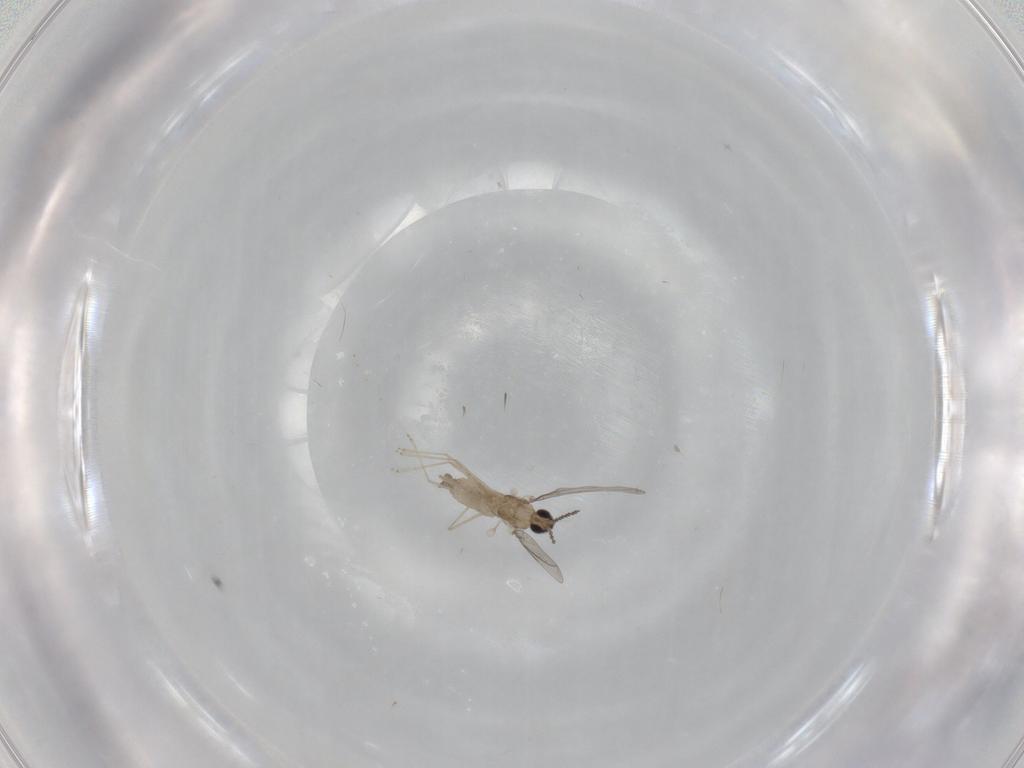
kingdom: Animalia
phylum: Arthropoda
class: Insecta
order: Diptera
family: Cecidomyiidae
